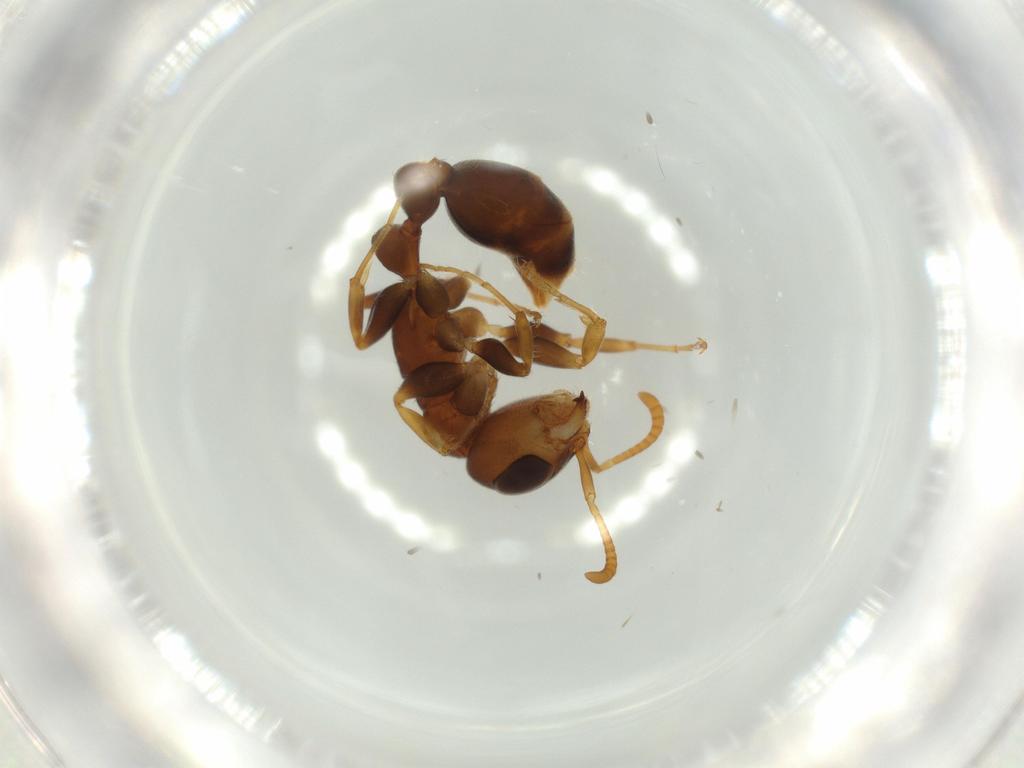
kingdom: Animalia
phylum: Arthropoda
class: Insecta
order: Hymenoptera
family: Formicidae
